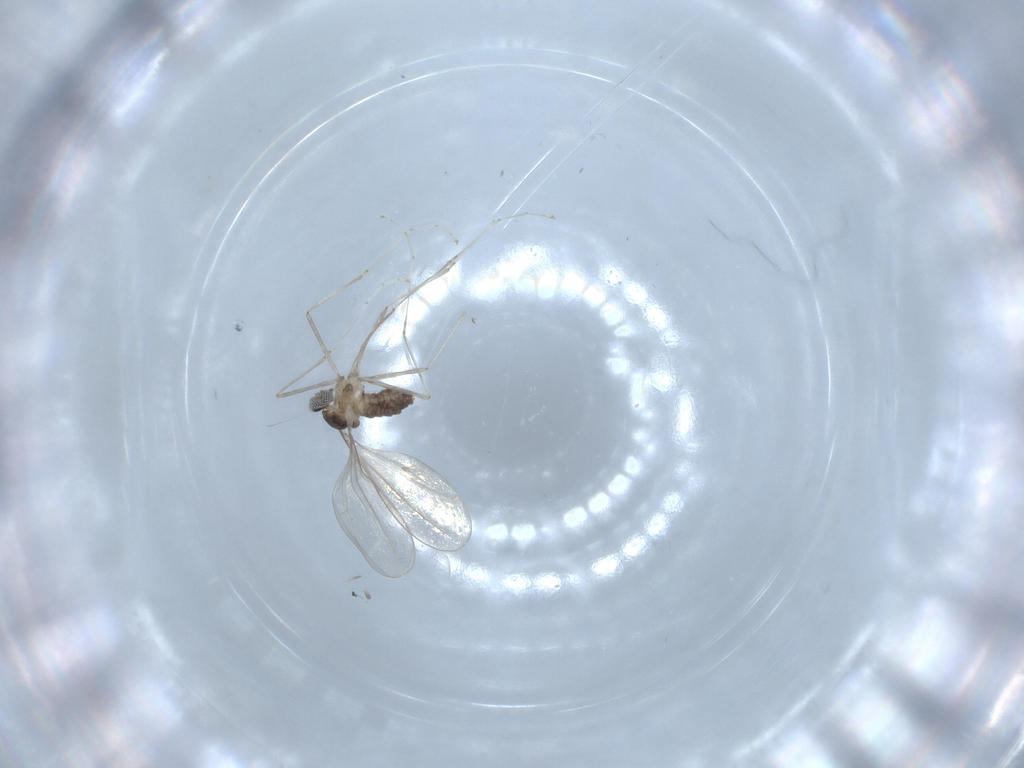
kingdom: Animalia
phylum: Arthropoda
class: Insecta
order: Diptera
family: Cecidomyiidae
